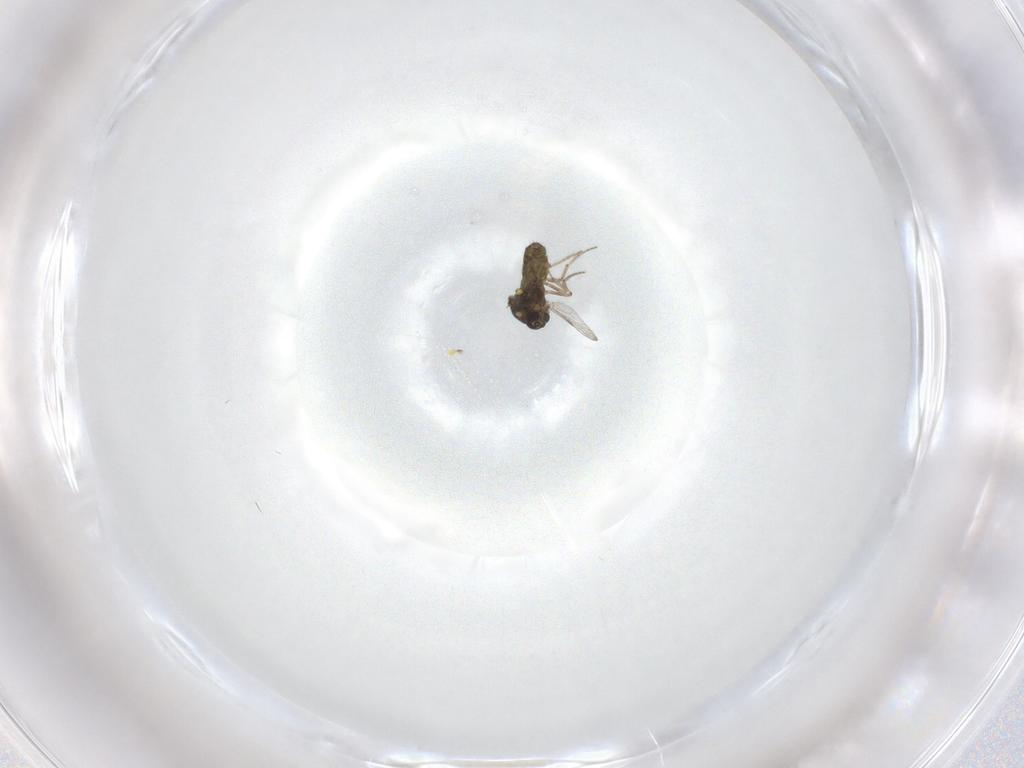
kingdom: Animalia
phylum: Arthropoda
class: Insecta
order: Diptera
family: Ceratopogonidae
